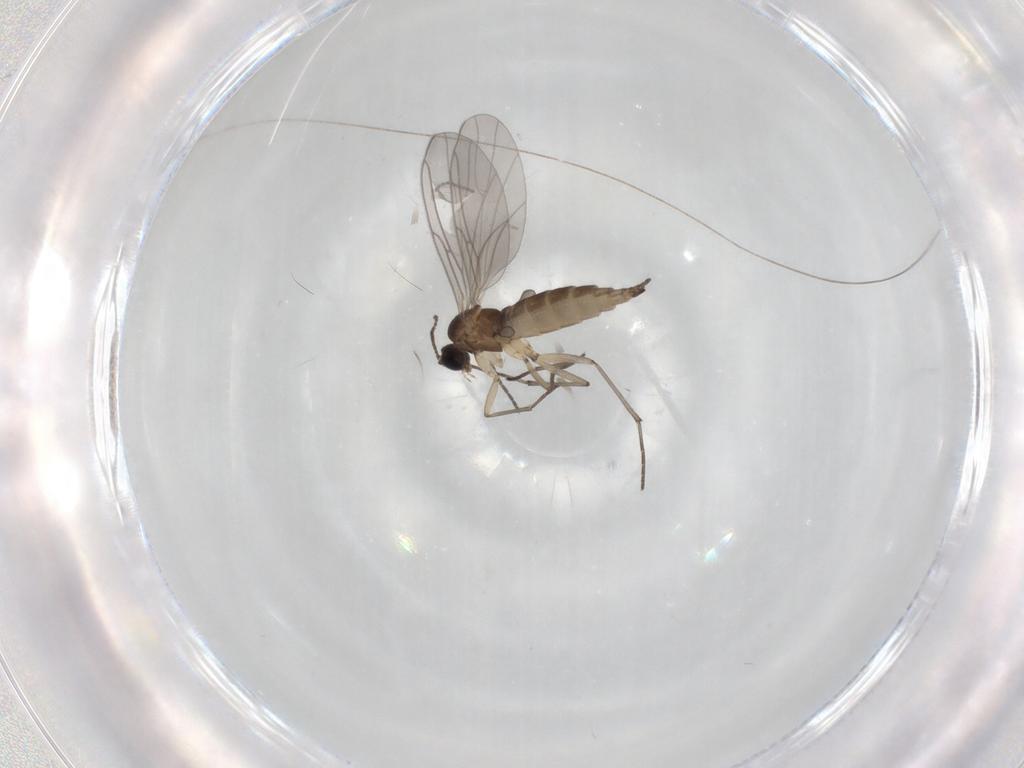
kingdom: Animalia
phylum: Arthropoda
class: Insecta
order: Diptera
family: Sciaridae
